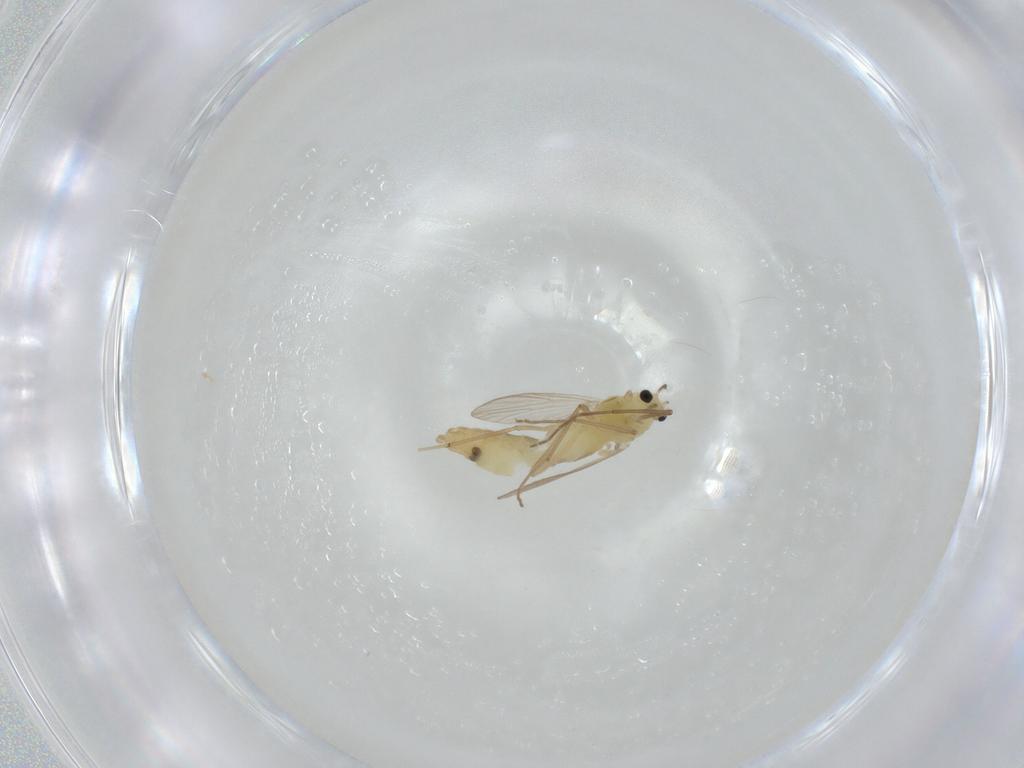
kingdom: Animalia
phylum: Arthropoda
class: Insecta
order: Diptera
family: Chironomidae
